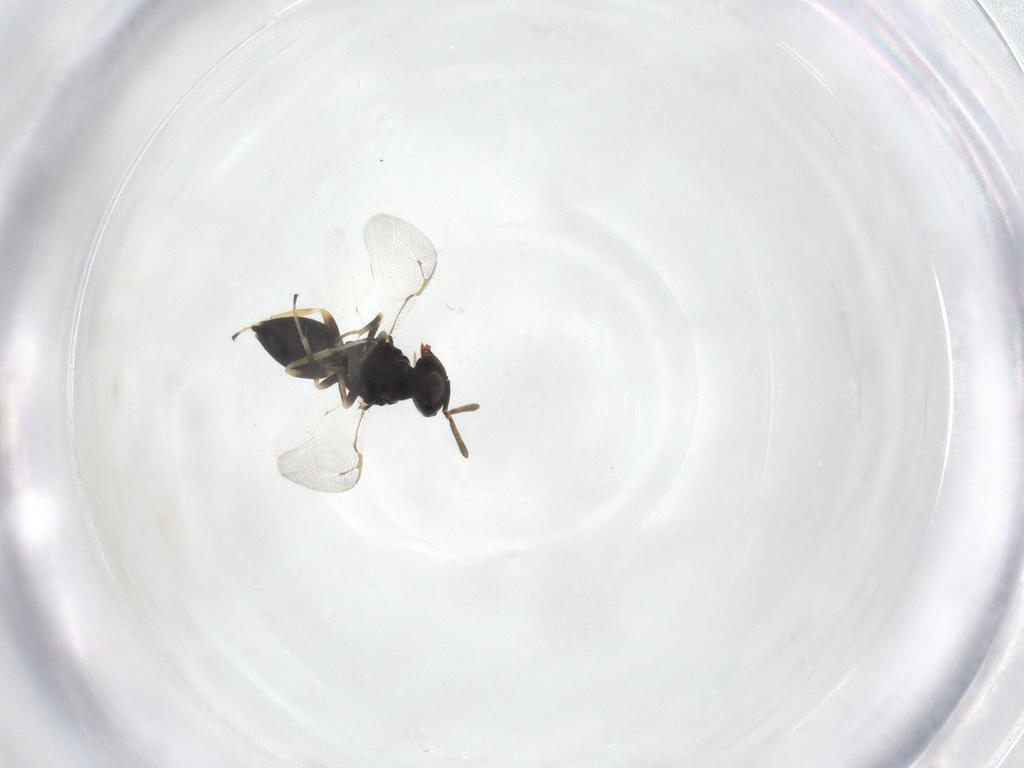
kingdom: Animalia
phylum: Arthropoda
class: Insecta
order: Hymenoptera
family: Pteromalidae
